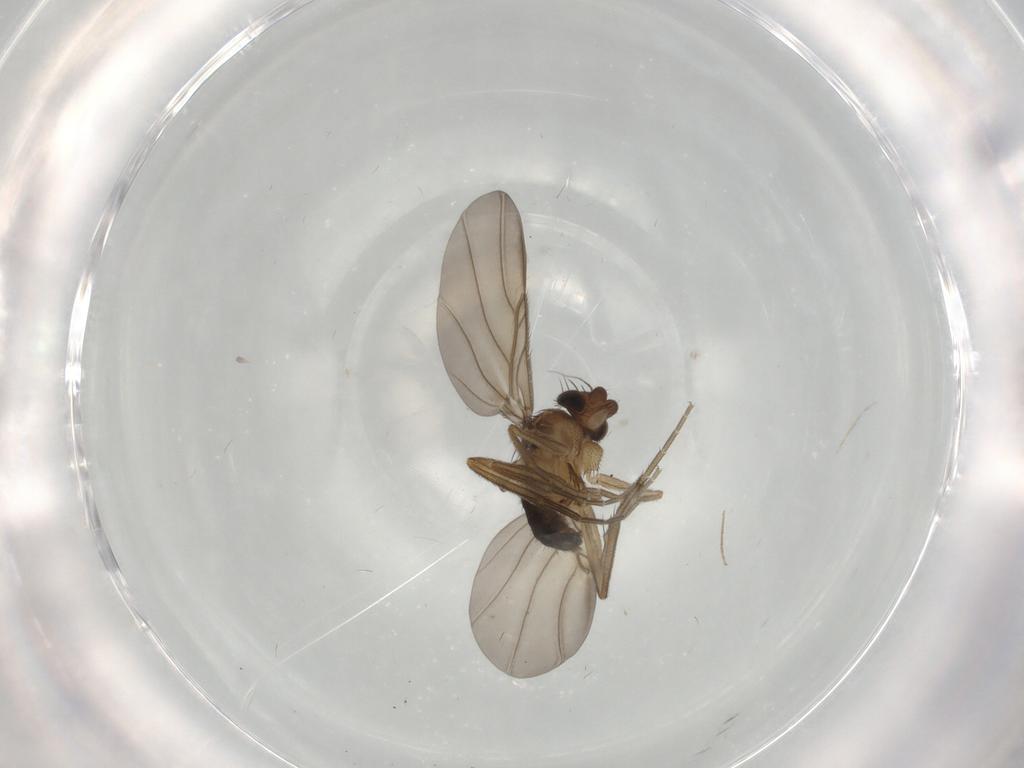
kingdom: Animalia
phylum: Arthropoda
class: Insecta
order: Diptera
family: Phoridae
